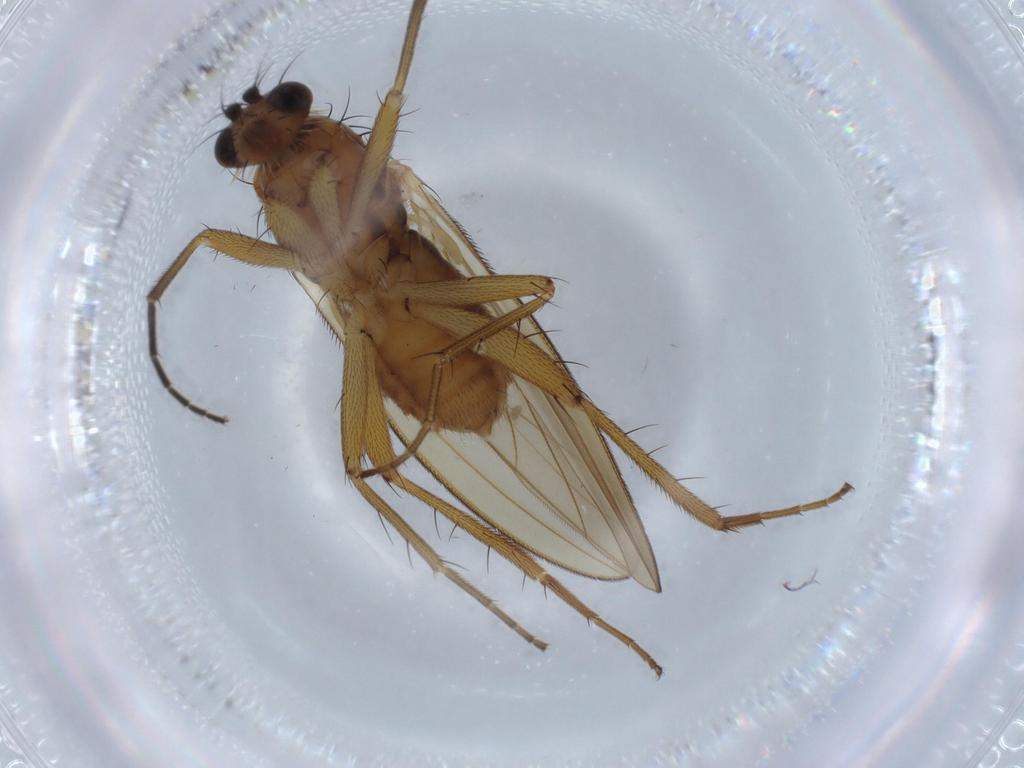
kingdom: Animalia
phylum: Arthropoda
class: Insecta
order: Diptera
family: Lonchopteridae
